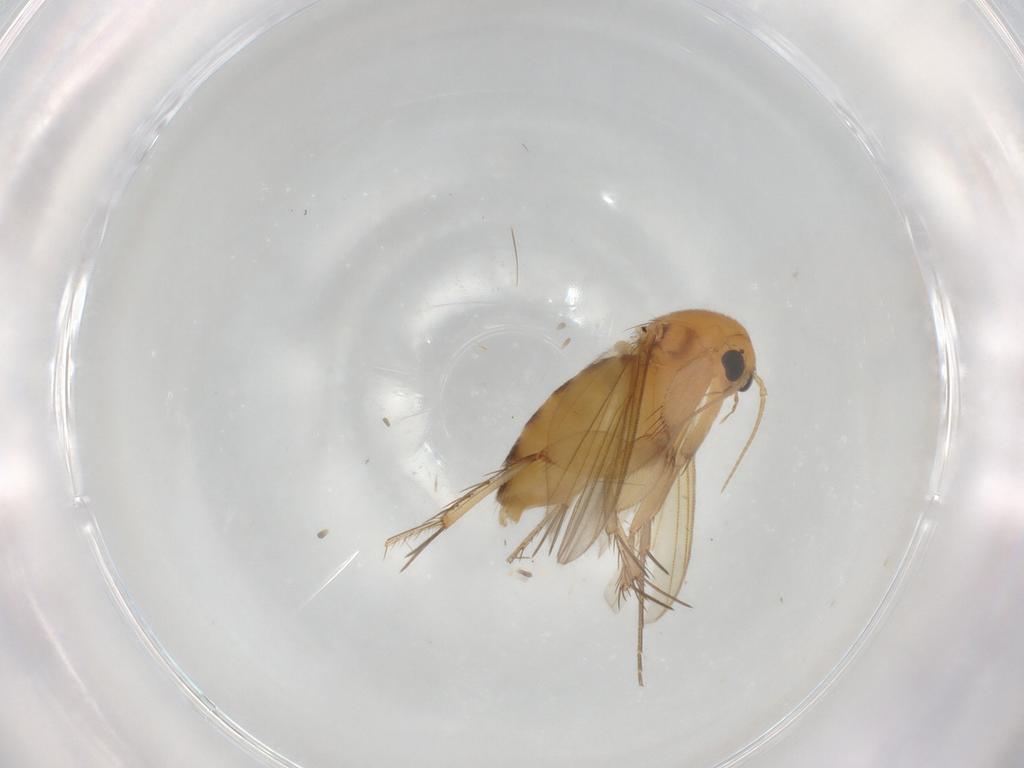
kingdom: Animalia
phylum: Arthropoda
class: Insecta
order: Diptera
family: Mycetophilidae
